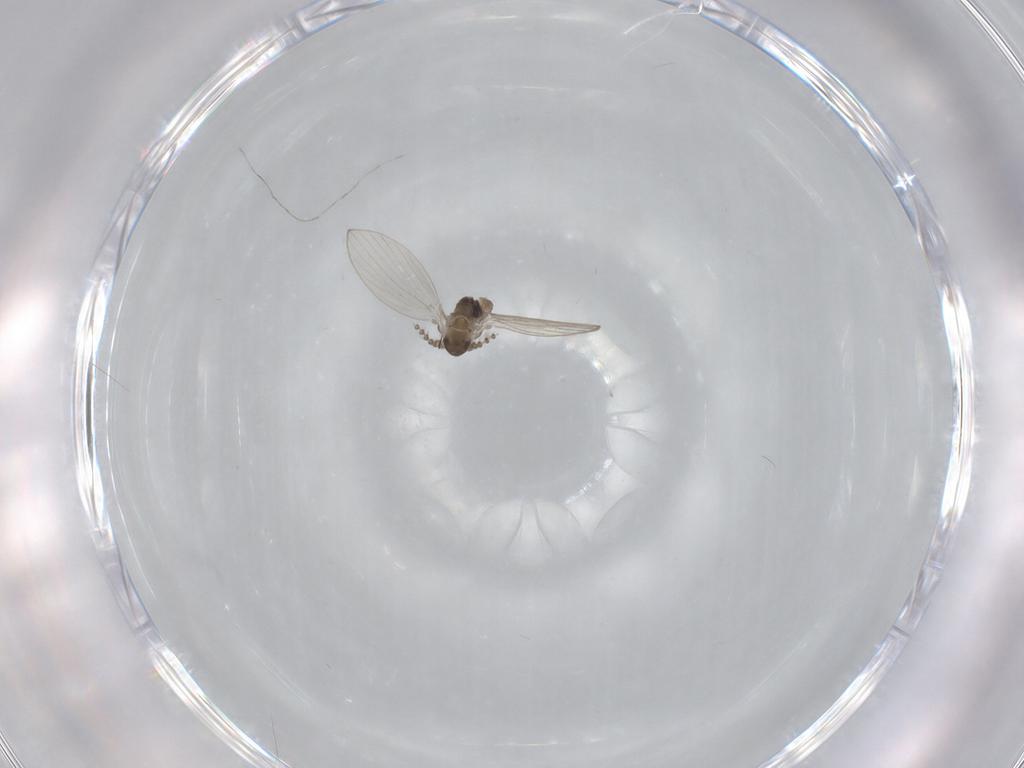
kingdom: Animalia
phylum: Arthropoda
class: Insecta
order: Diptera
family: Psychodidae
